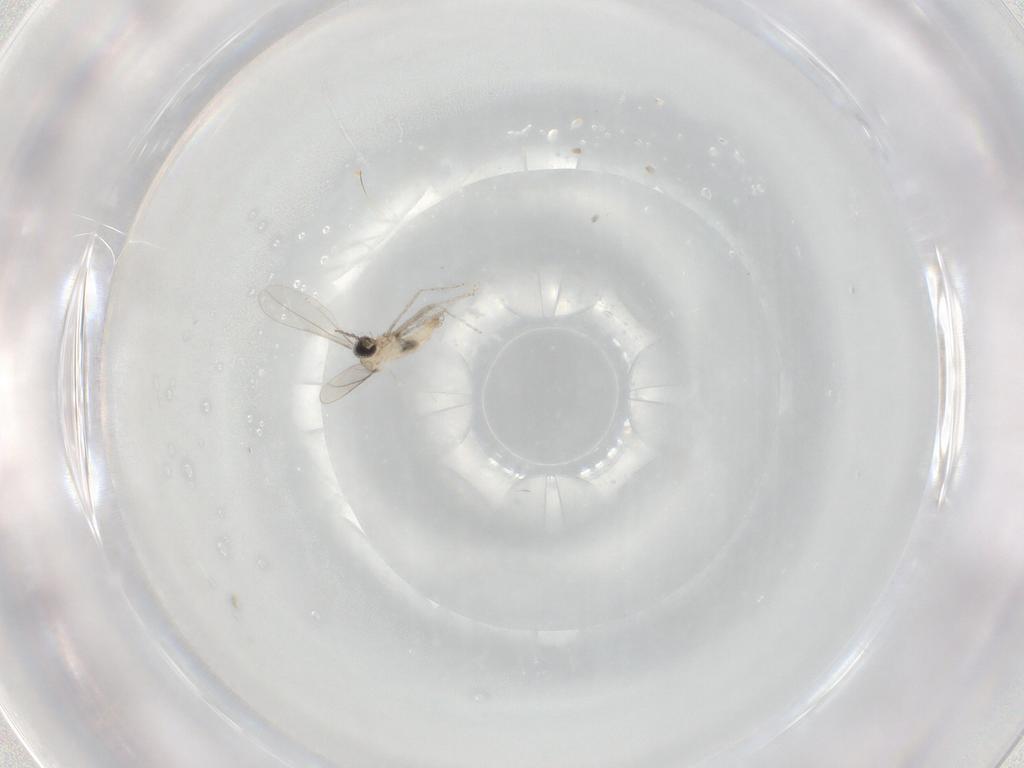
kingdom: Animalia
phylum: Arthropoda
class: Insecta
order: Diptera
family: Cecidomyiidae
